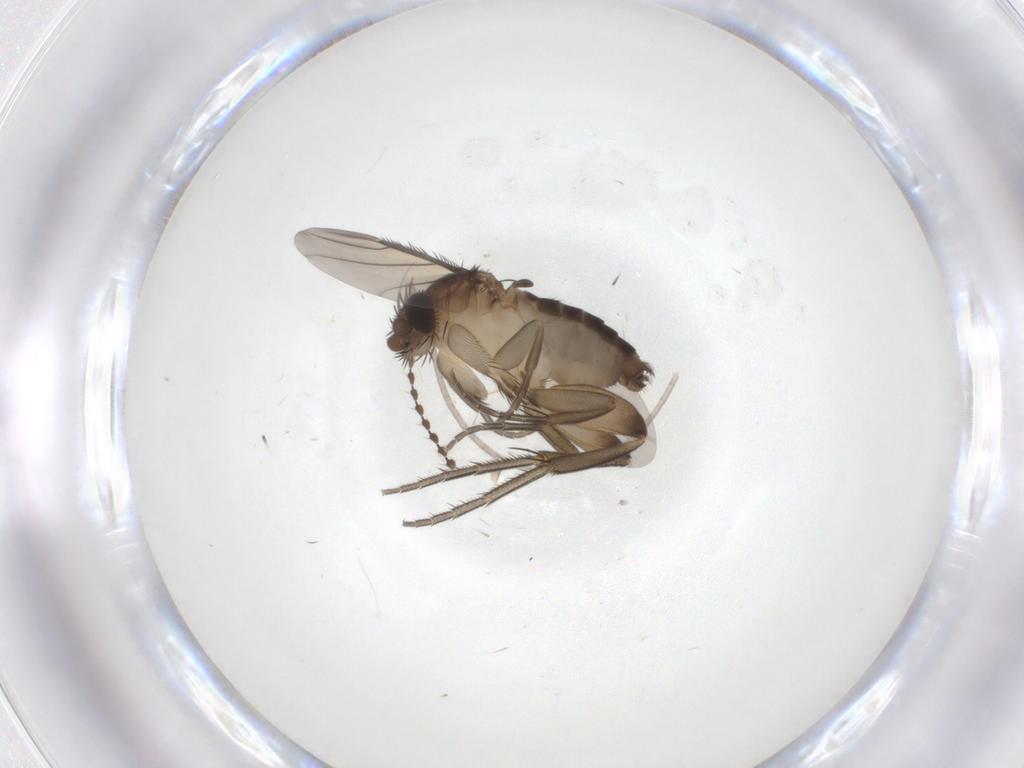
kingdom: Animalia
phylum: Arthropoda
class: Insecta
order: Diptera
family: Phoridae
